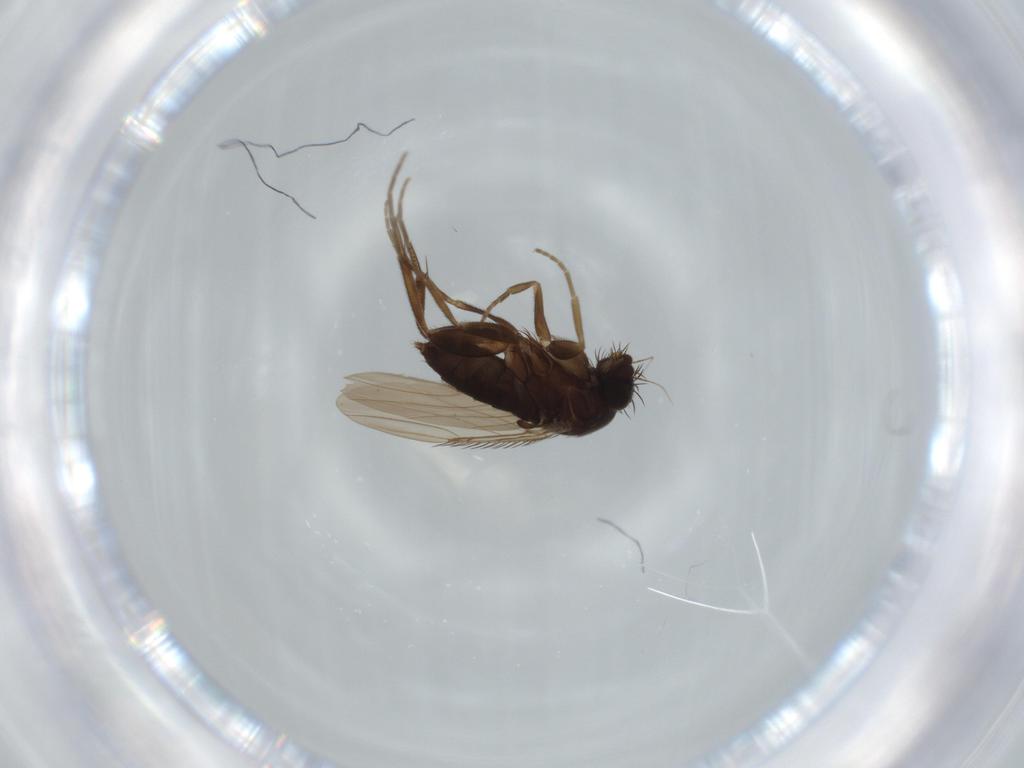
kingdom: Animalia
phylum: Arthropoda
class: Insecta
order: Diptera
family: Phoridae
